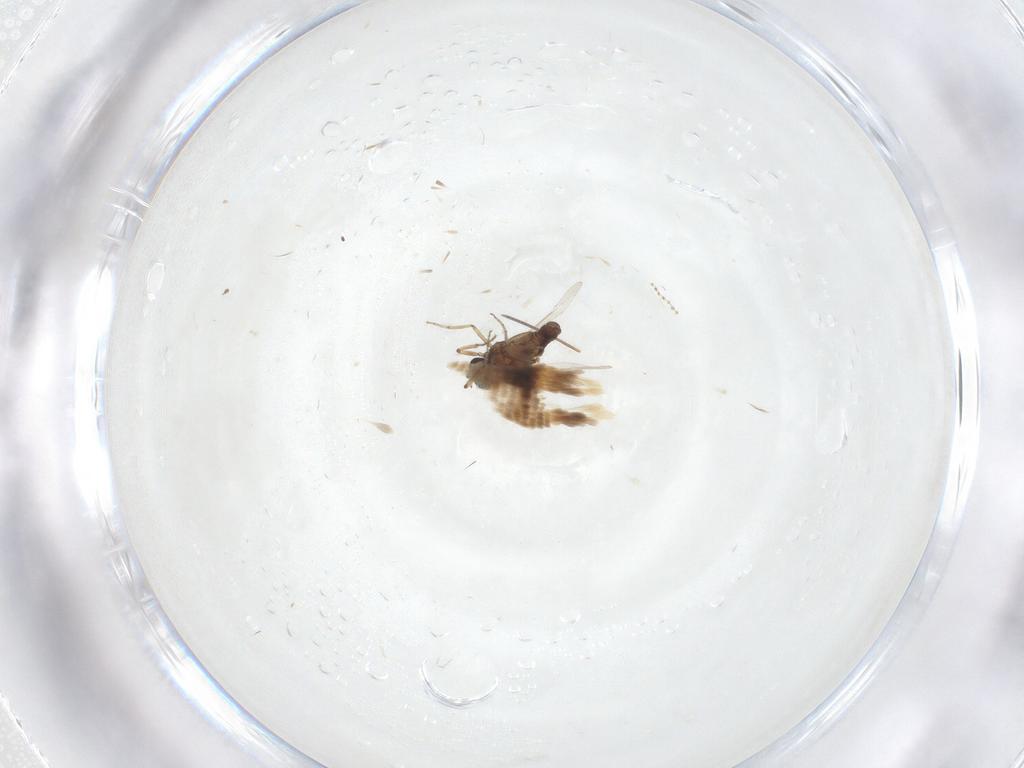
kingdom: Animalia
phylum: Arthropoda
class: Insecta
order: Diptera
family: Ceratopogonidae
